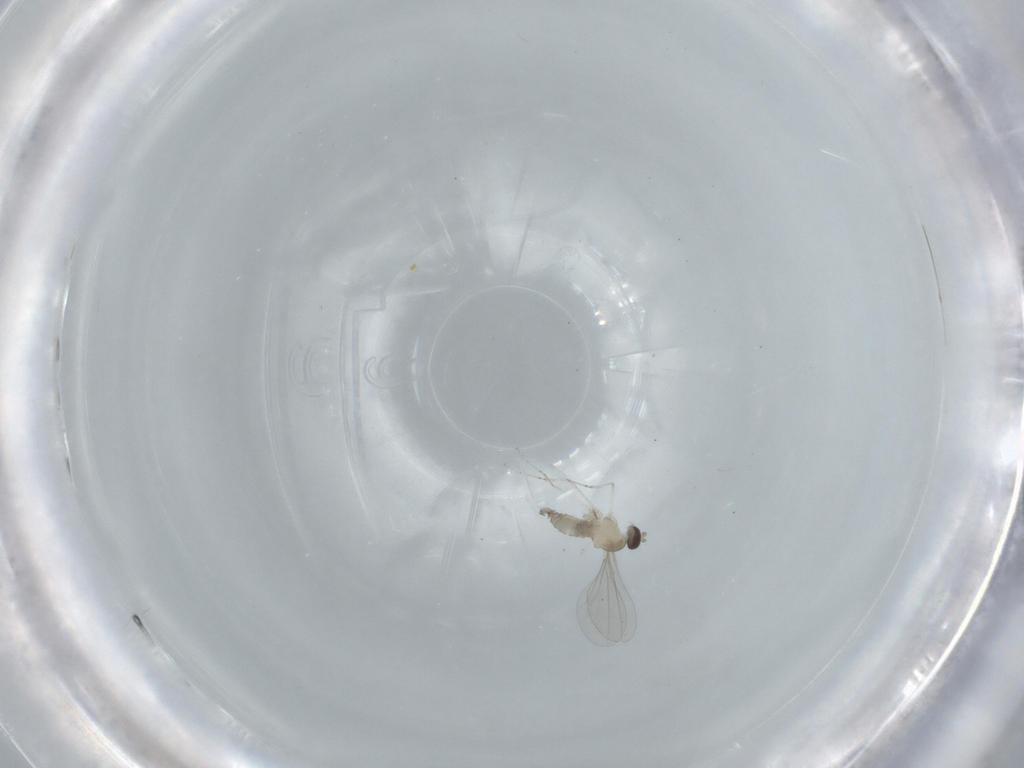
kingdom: Animalia
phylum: Arthropoda
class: Insecta
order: Diptera
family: Cecidomyiidae
